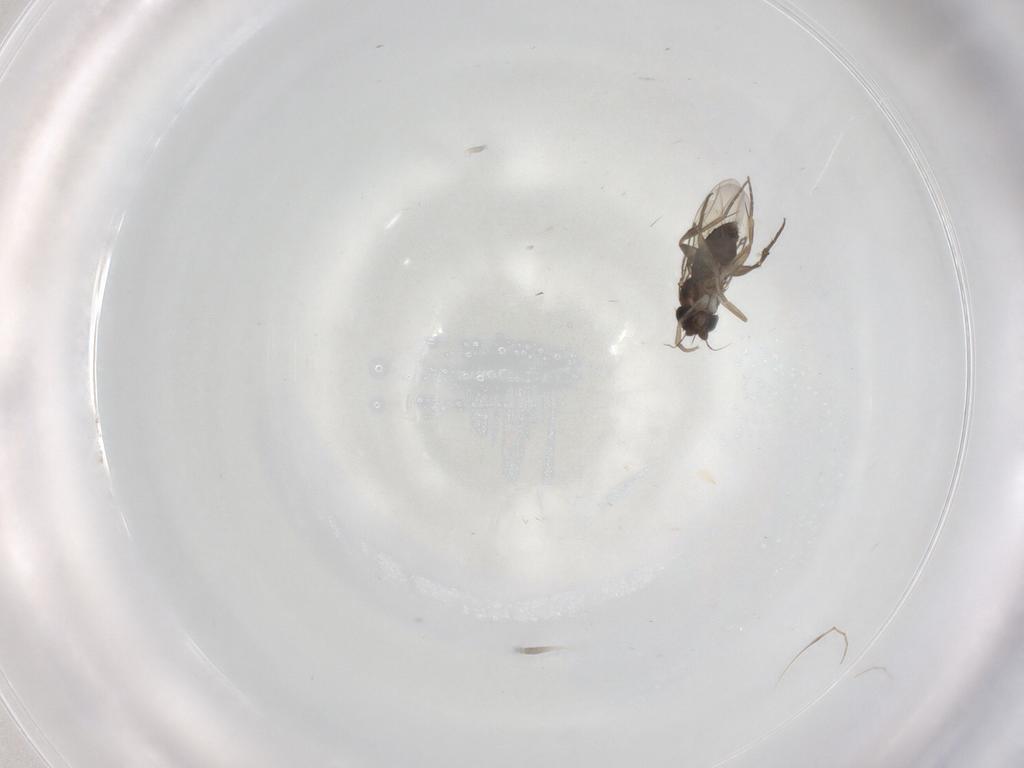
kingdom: Animalia
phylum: Arthropoda
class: Insecta
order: Diptera
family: Phoridae
